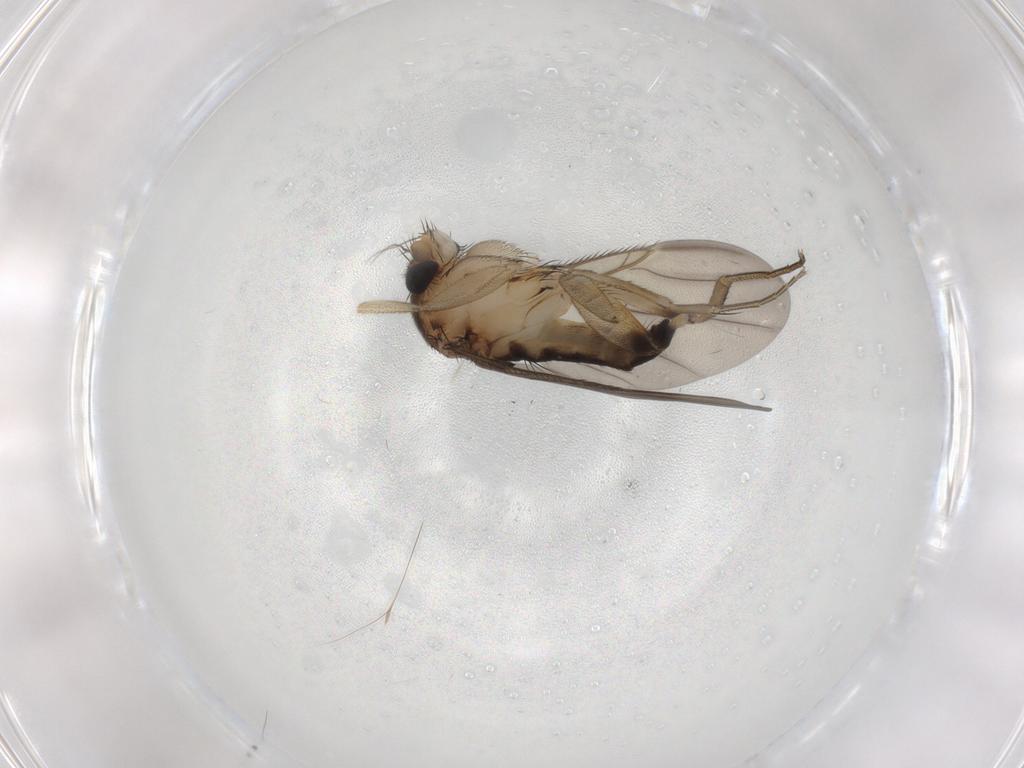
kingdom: Animalia
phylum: Arthropoda
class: Insecta
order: Diptera
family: Phoridae
